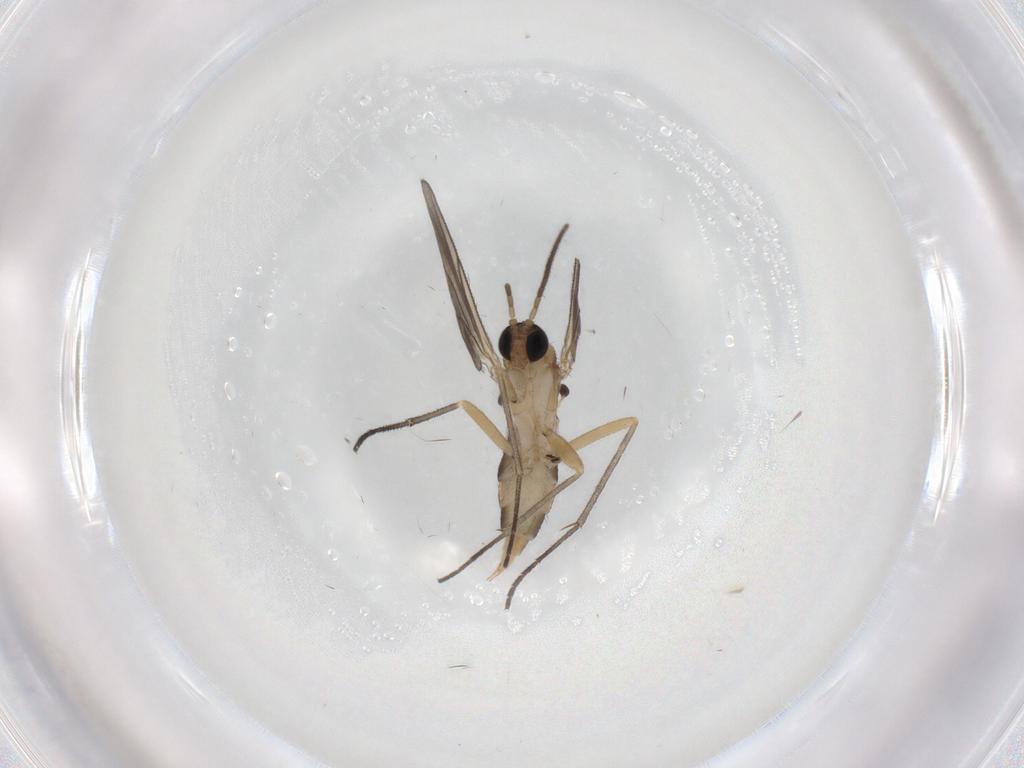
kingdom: Animalia
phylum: Arthropoda
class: Insecta
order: Diptera
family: Sciaridae
